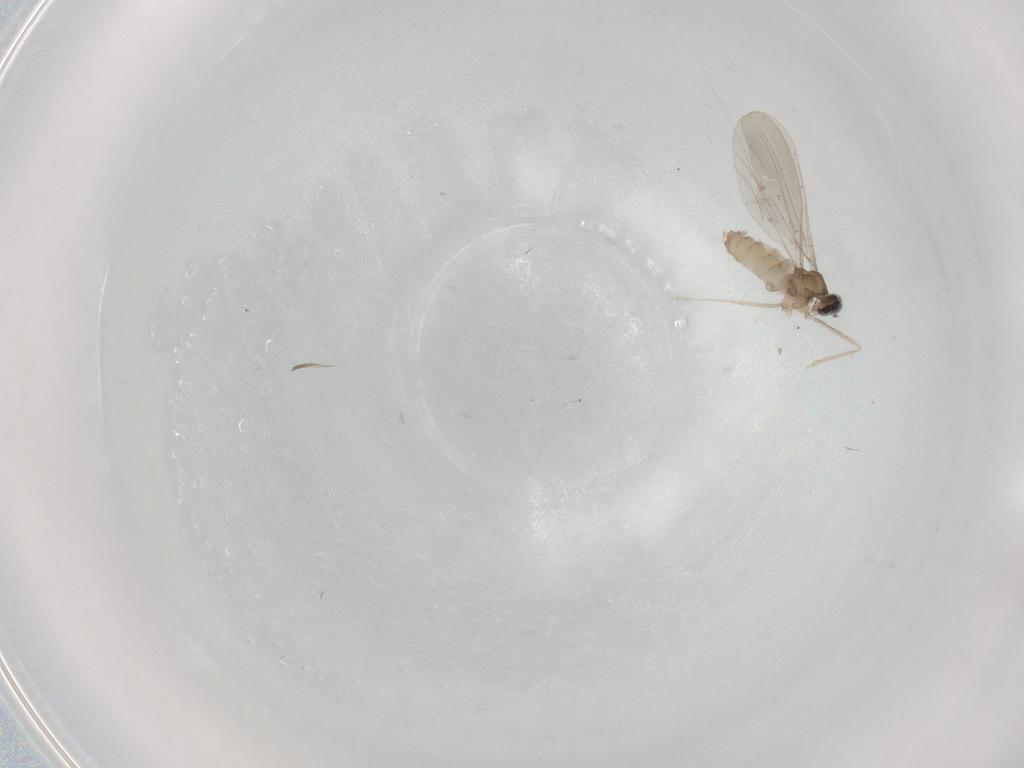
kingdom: Animalia
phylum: Arthropoda
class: Insecta
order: Diptera
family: Cecidomyiidae
